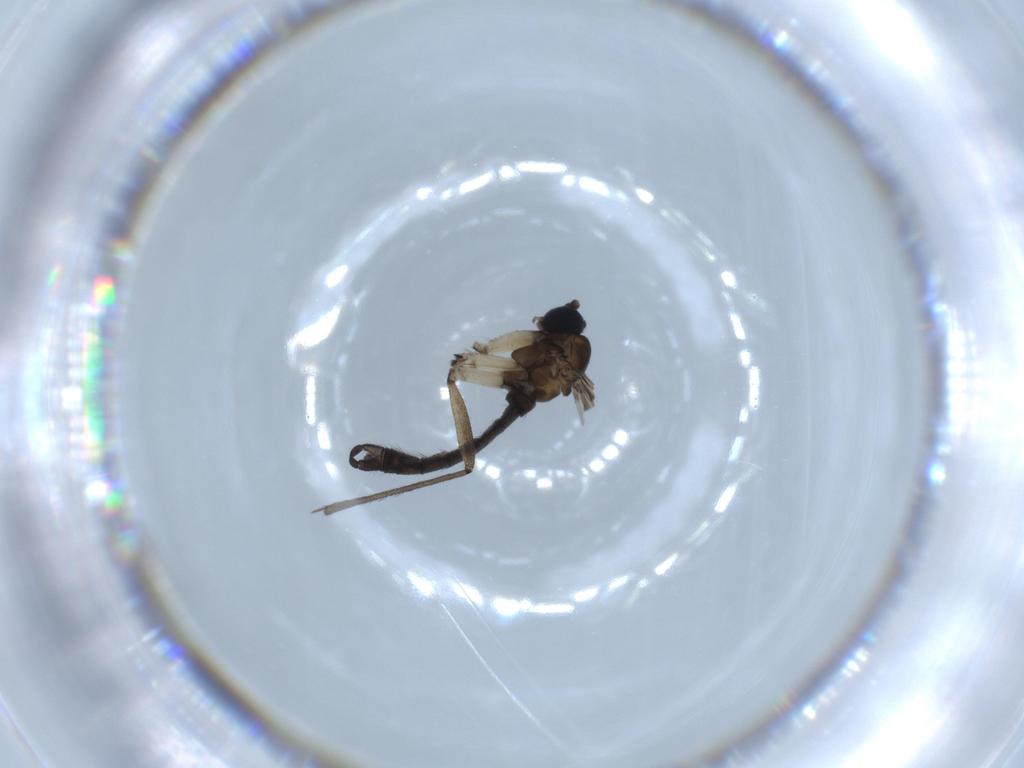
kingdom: Animalia
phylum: Arthropoda
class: Insecta
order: Diptera
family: Sciaridae
